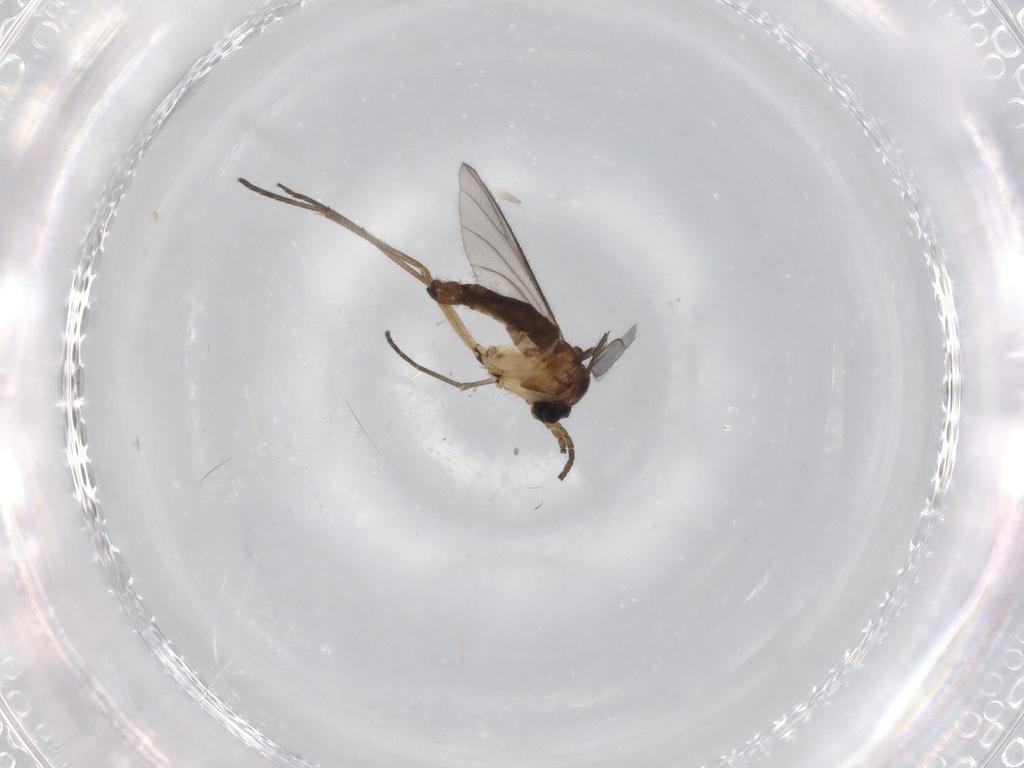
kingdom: Animalia
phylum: Arthropoda
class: Insecta
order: Diptera
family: Sciaridae
